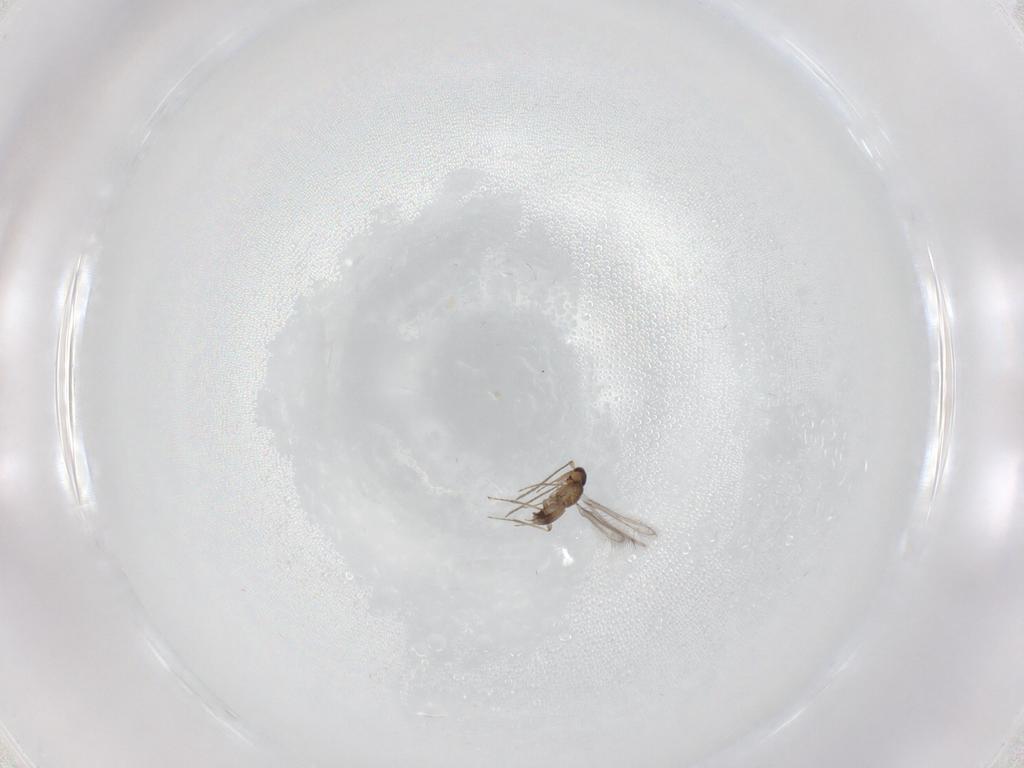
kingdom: Animalia
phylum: Arthropoda
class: Insecta
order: Hymenoptera
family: Mymaridae
